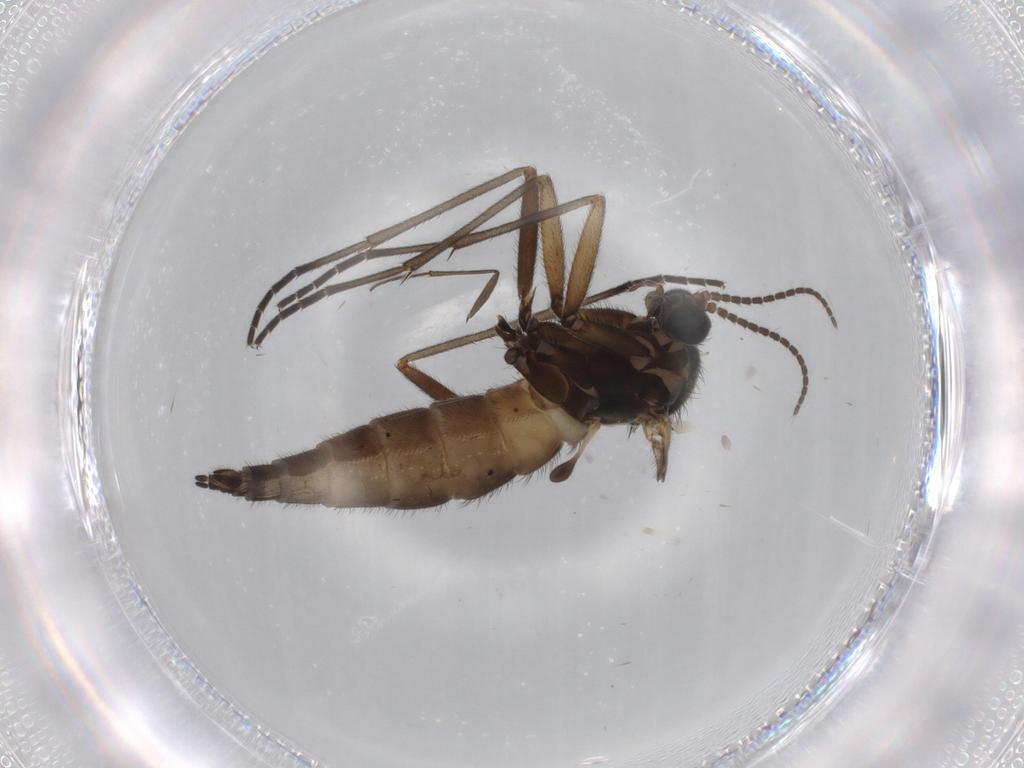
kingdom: Animalia
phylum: Arthropoda
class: Insecta
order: Diptera
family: Sciaridae
